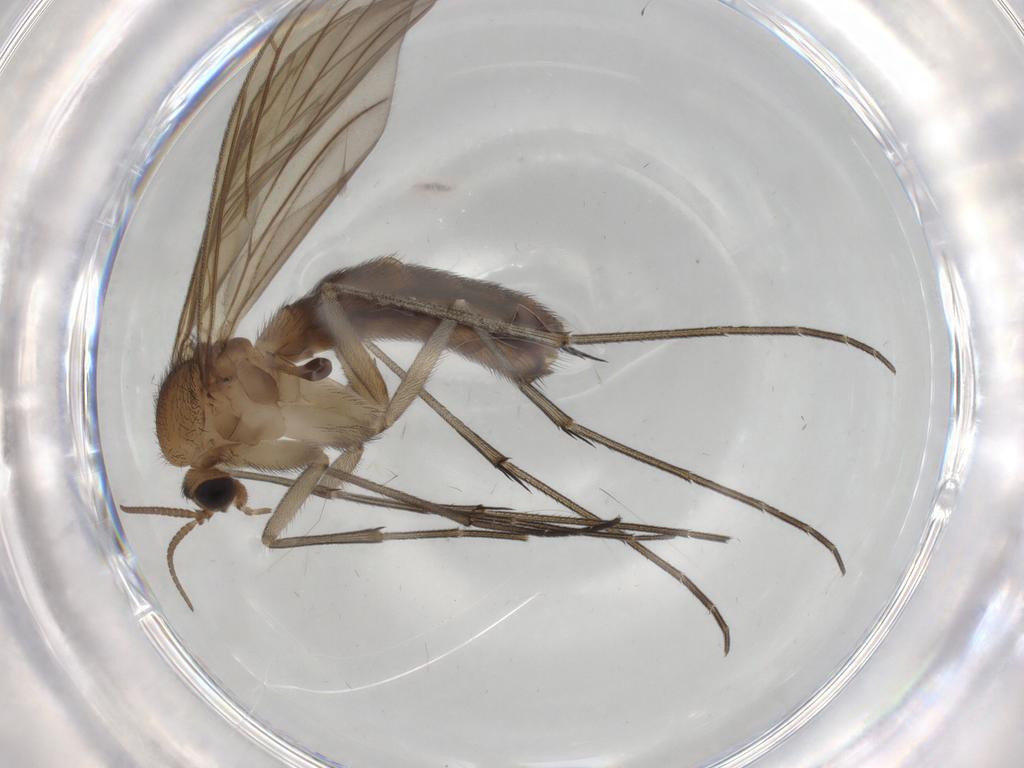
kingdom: Animalia
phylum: Arthropoda
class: Insecta
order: Diptera
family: Keroplatidae
